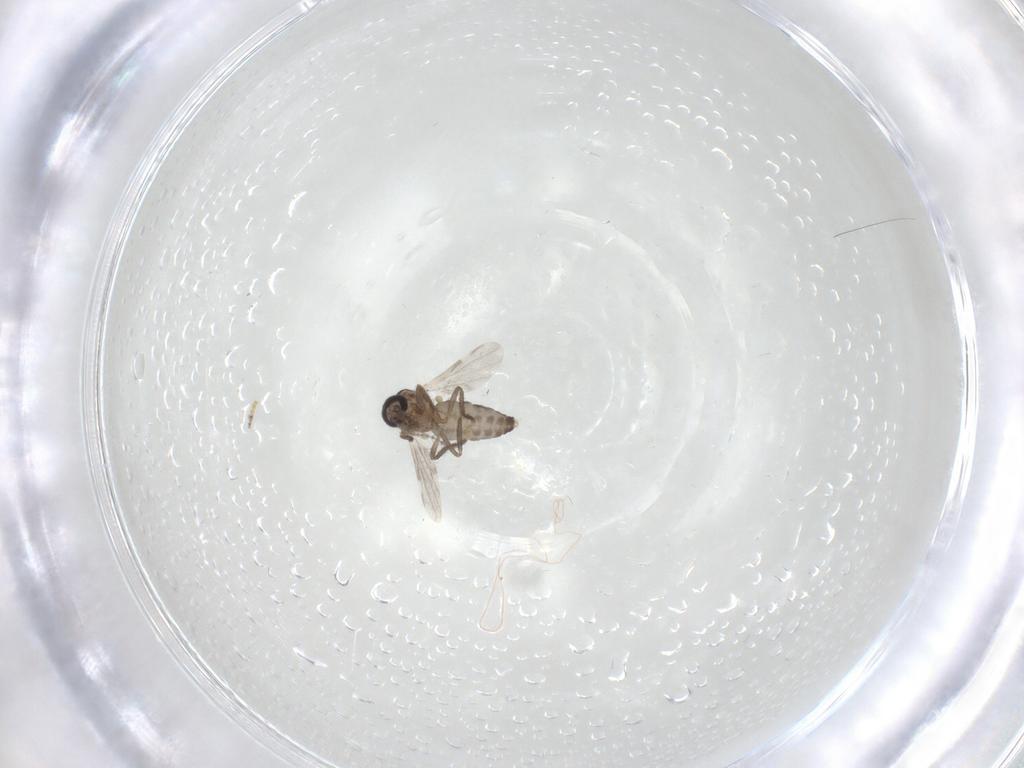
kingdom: Animalia
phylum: Arthropoda
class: Insecta
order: Diptera
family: Ceratopogonidae
